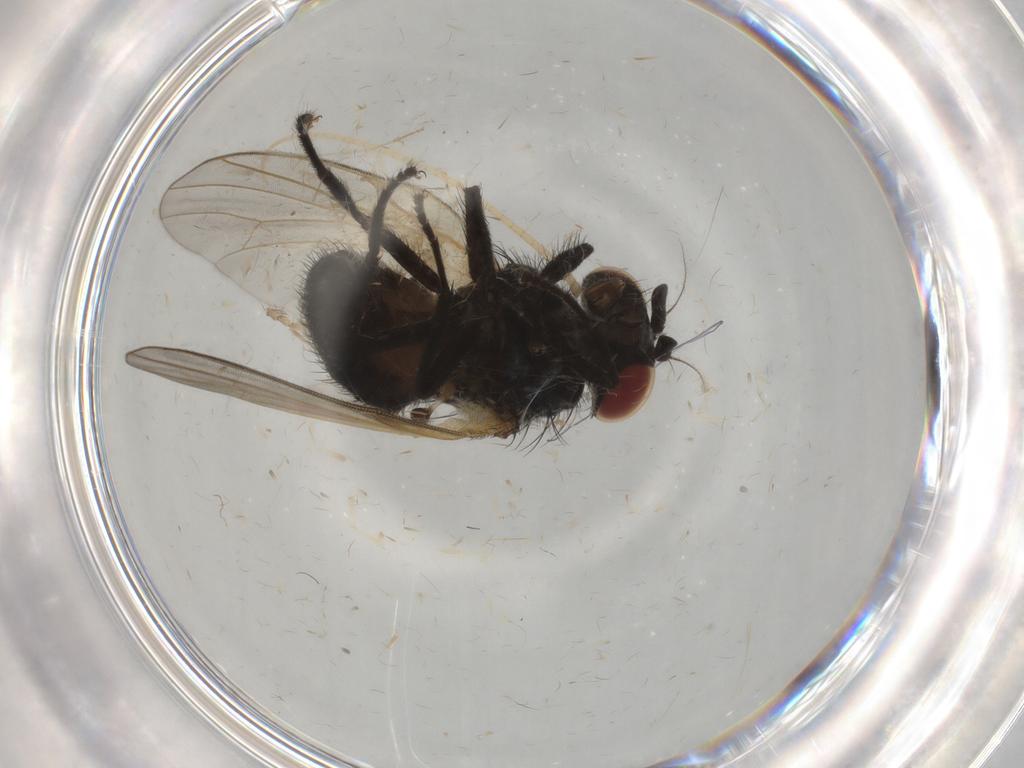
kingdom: Animalia
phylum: Arthropoda
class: Insecta
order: Diptera
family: Lonchaeidae
